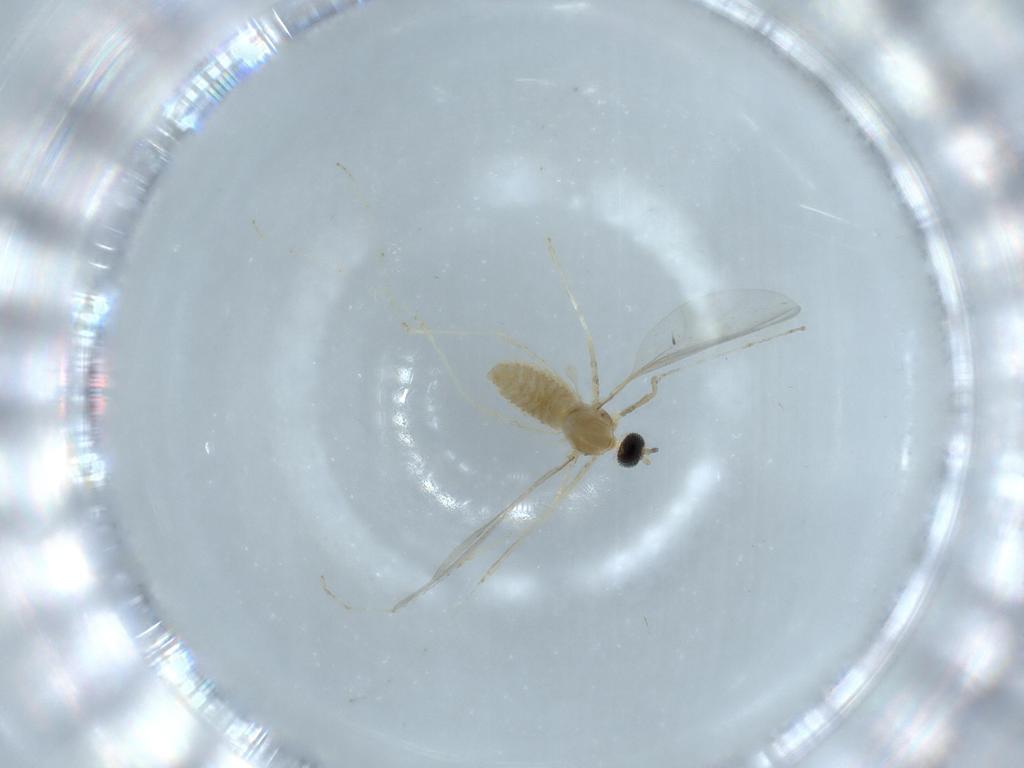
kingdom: Animalia
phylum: Arthropoda
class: Insecta
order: Diptera
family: Cecidomyiidae
